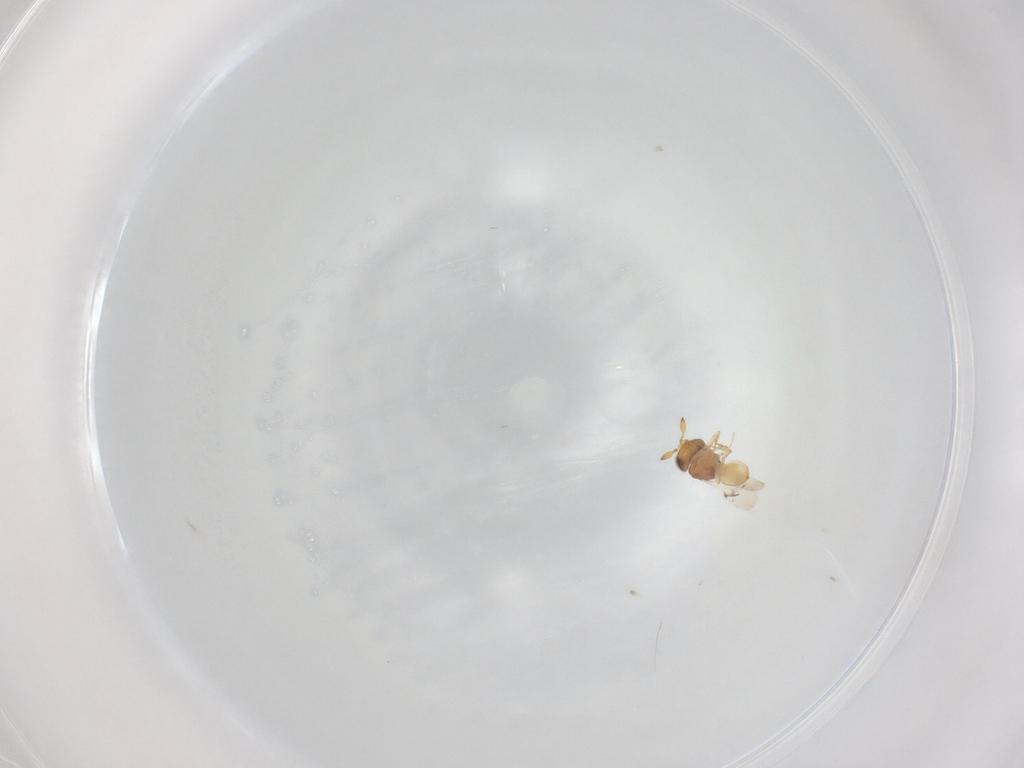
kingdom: Animalia
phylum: Arthropoda
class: Insecta
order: Hymenoptera
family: Scelionidae
